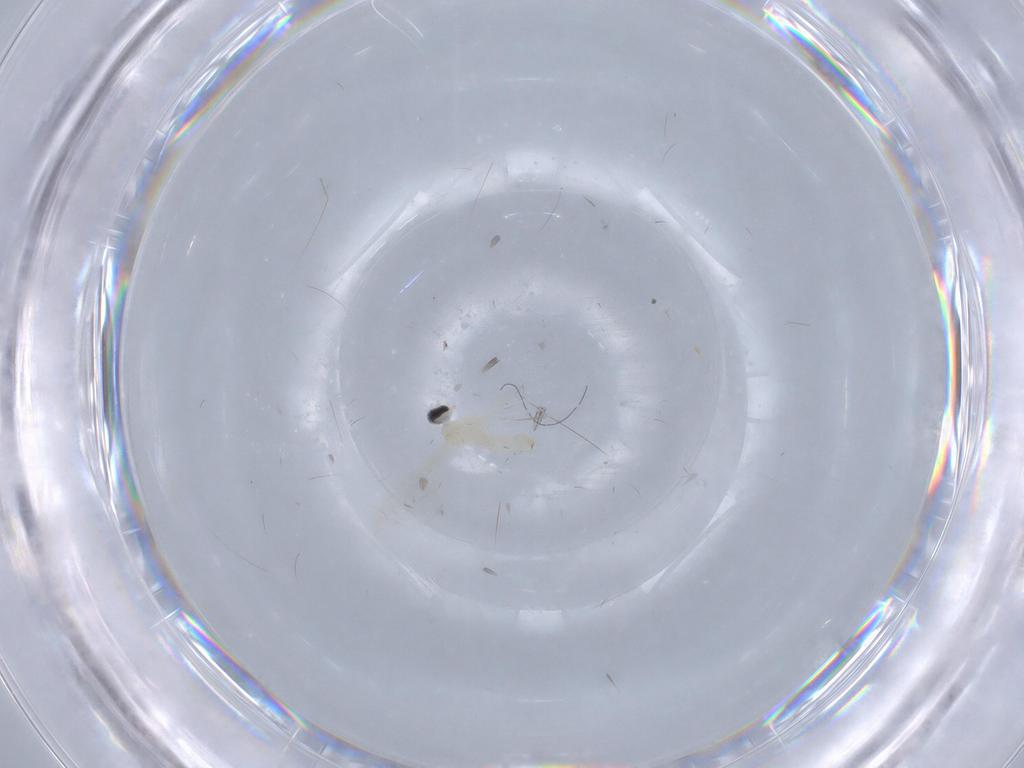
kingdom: Animalia
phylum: Arthropoda
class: Insecta
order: Diptera
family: Cecidomyiidae
